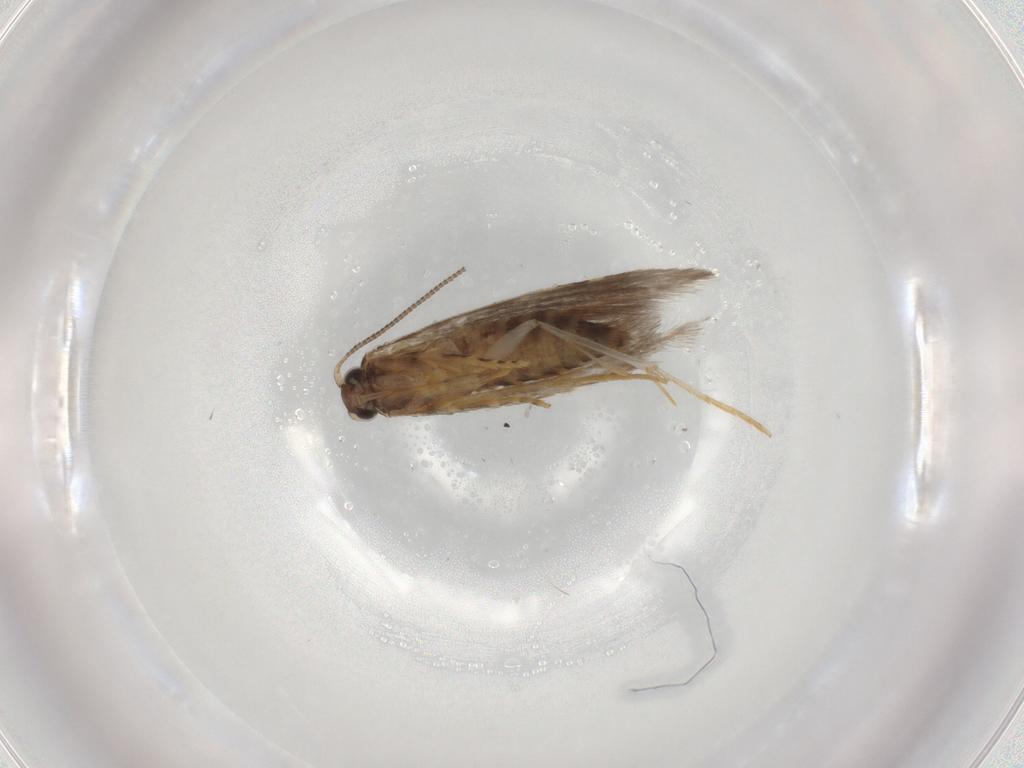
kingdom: Animalia
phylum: Arthropoda
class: Insecta
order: Lepidoptera
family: Tineidae
